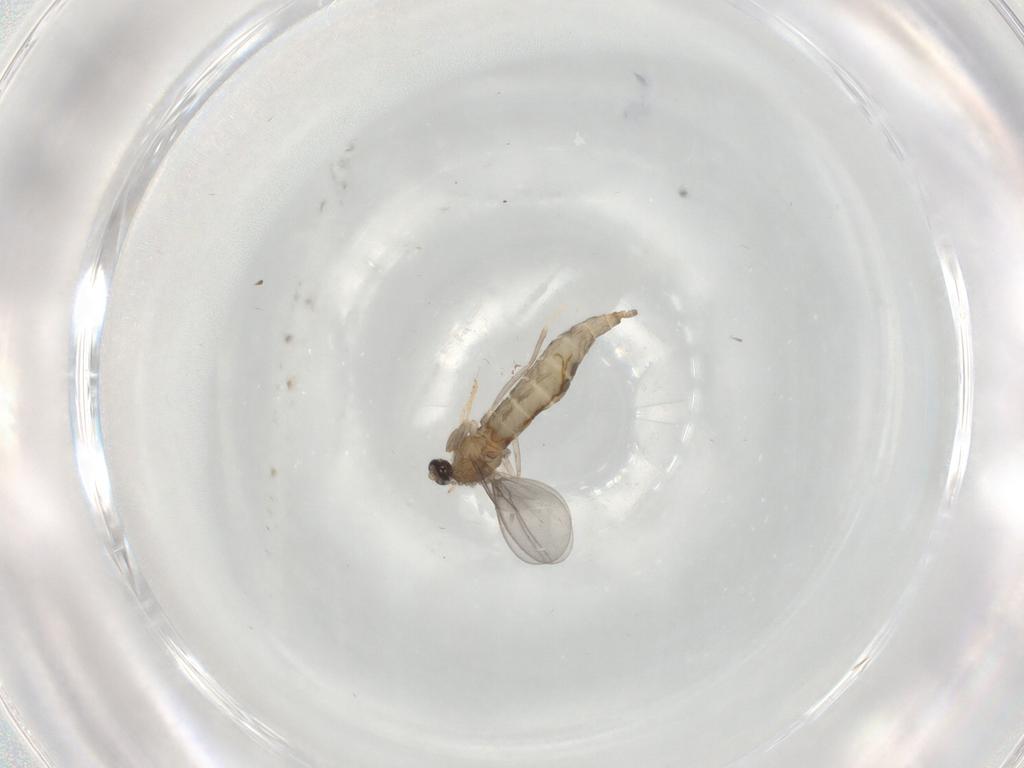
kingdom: Animalia
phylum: Arthropoda
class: Insecta
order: Diptera
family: Cecidomyiidae
